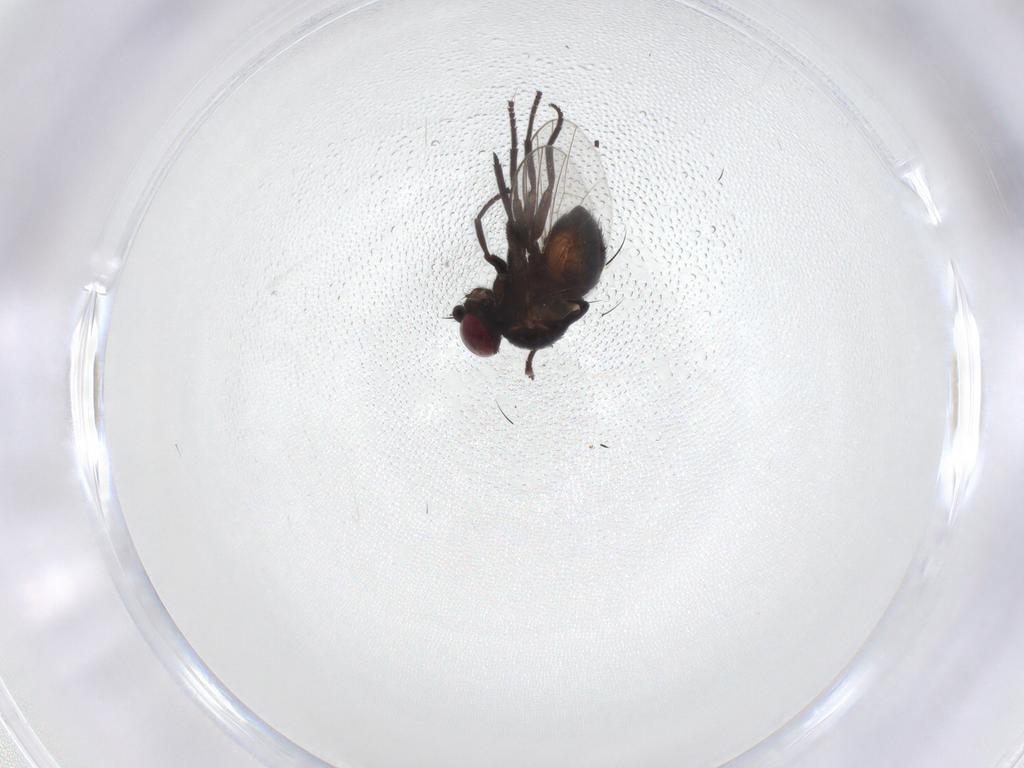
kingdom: Animalia
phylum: Arthropoda
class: Insecta
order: Diptera
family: Agromyzidae
